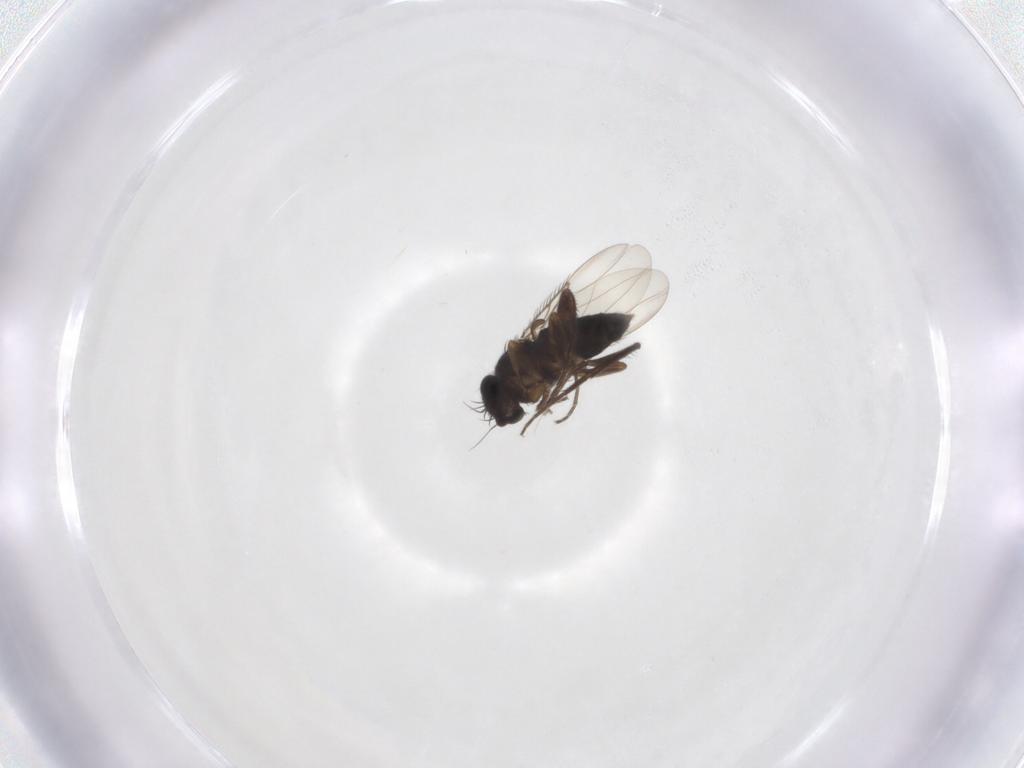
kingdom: Animalia
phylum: Arthropoda
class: Insecta
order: Diptera
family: Phoridae
